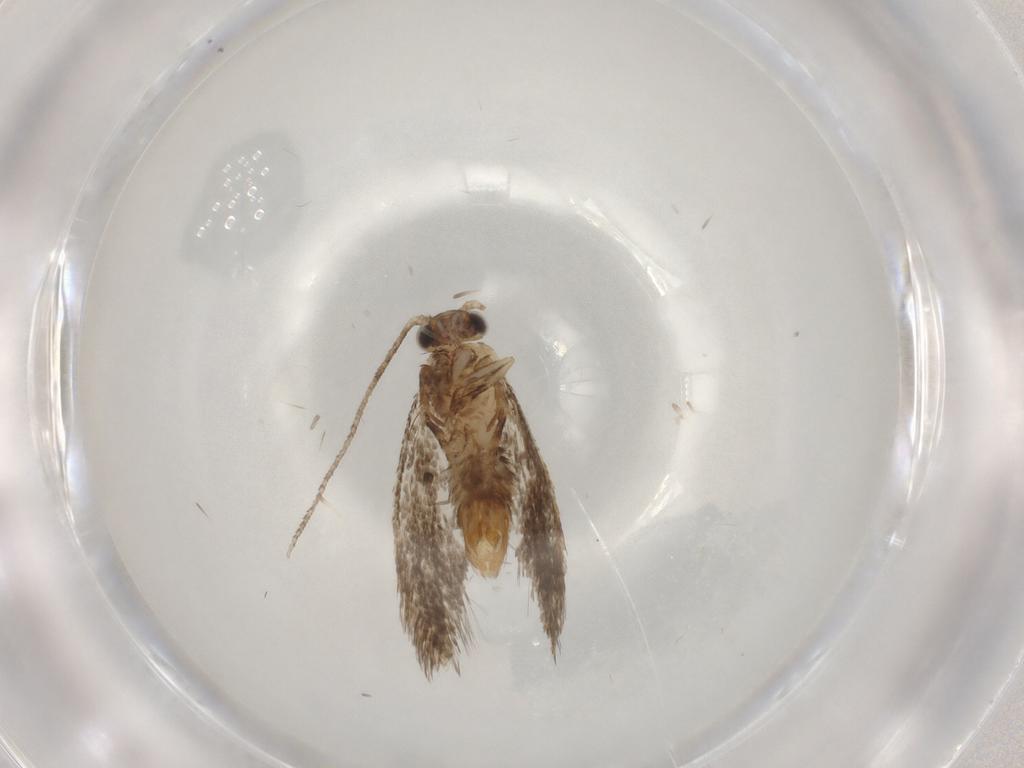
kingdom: Animalia
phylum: Arthropoda
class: Insecta
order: Lepidoptera
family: Tineidae
